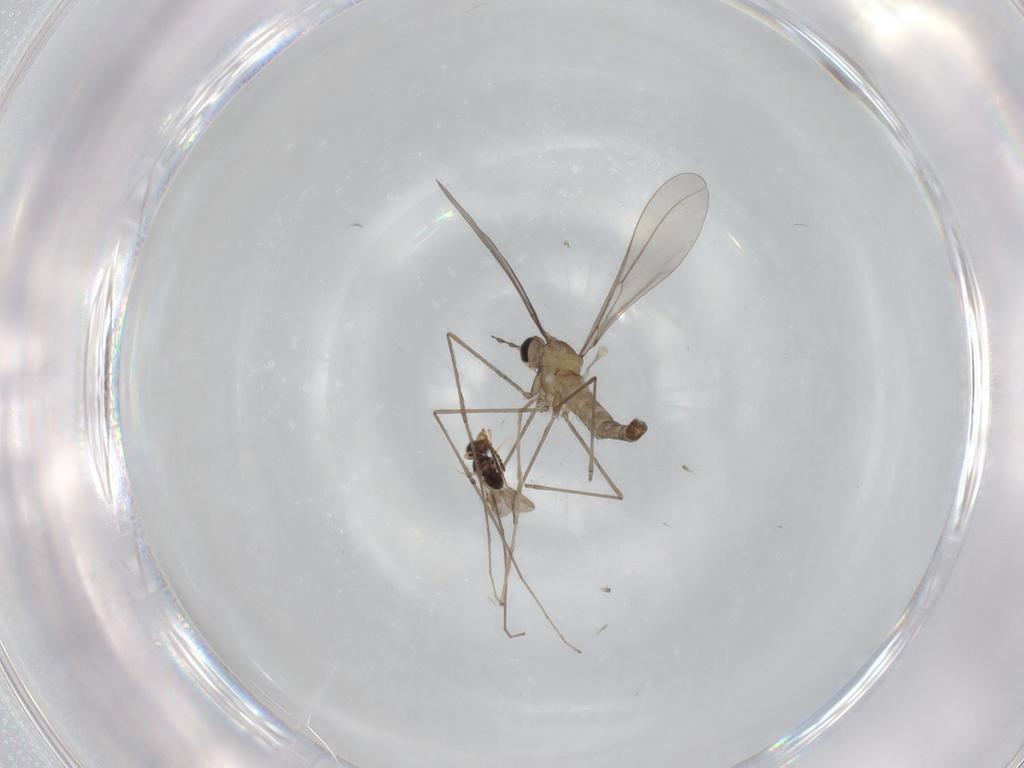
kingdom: Animalia
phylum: Arthropoda
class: Insecta
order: Diptera
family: Chironomidae
